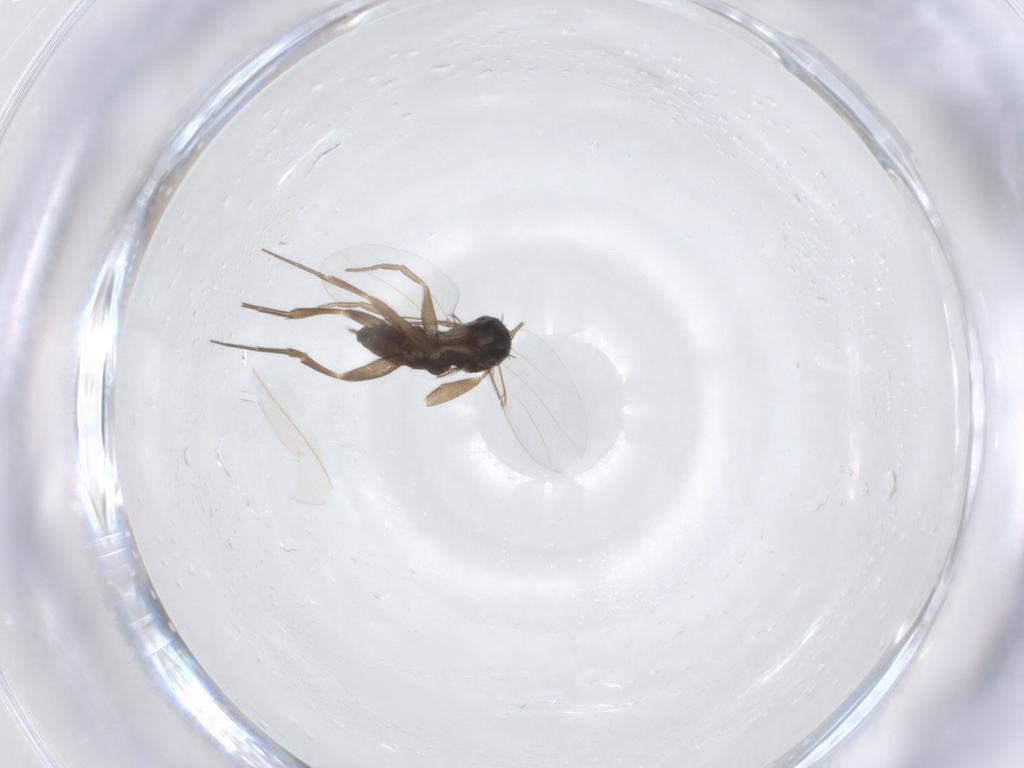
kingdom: Animalia
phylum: Arthropoda
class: Insecta
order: Diptera
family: Phoridae
